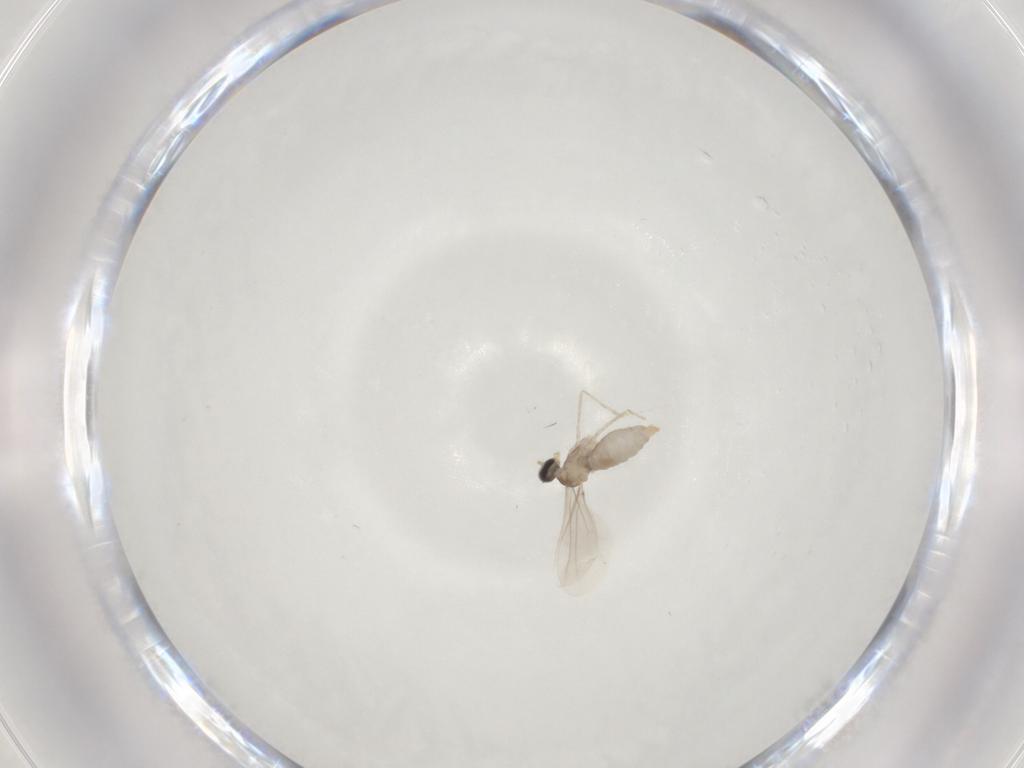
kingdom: Animalia
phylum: Arthropoda
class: Insecta
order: Diptera
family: Cecidomyiidae
